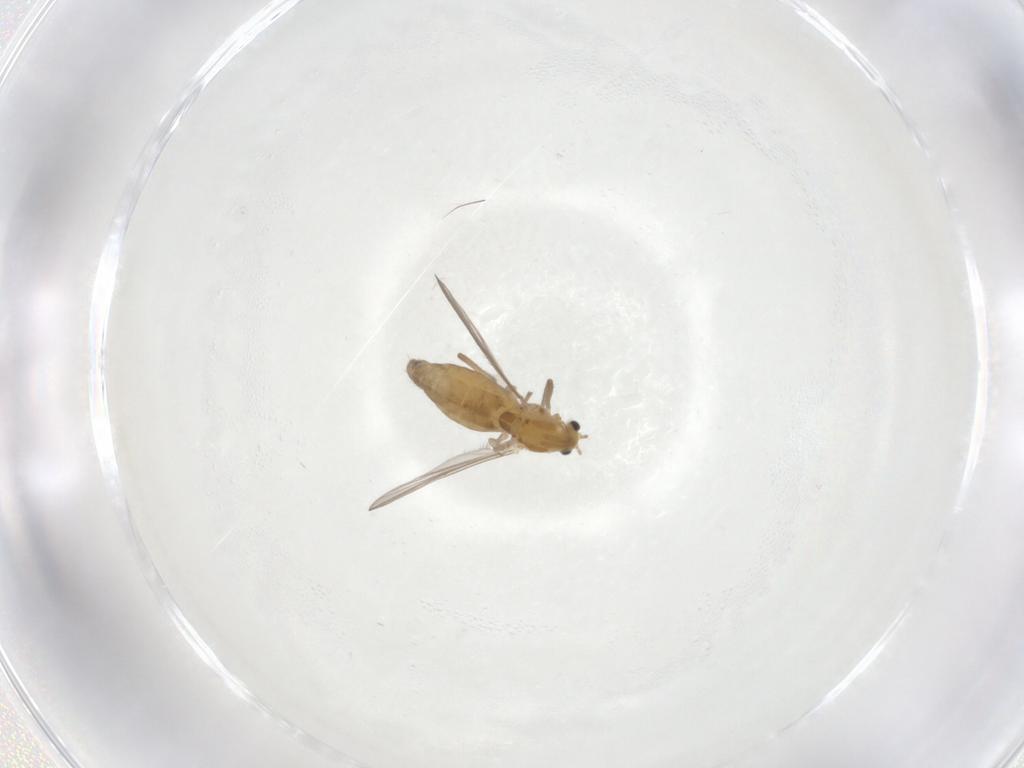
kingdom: Animalia
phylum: Arthropoda
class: Insecta
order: Diptera
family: Chironomidae
